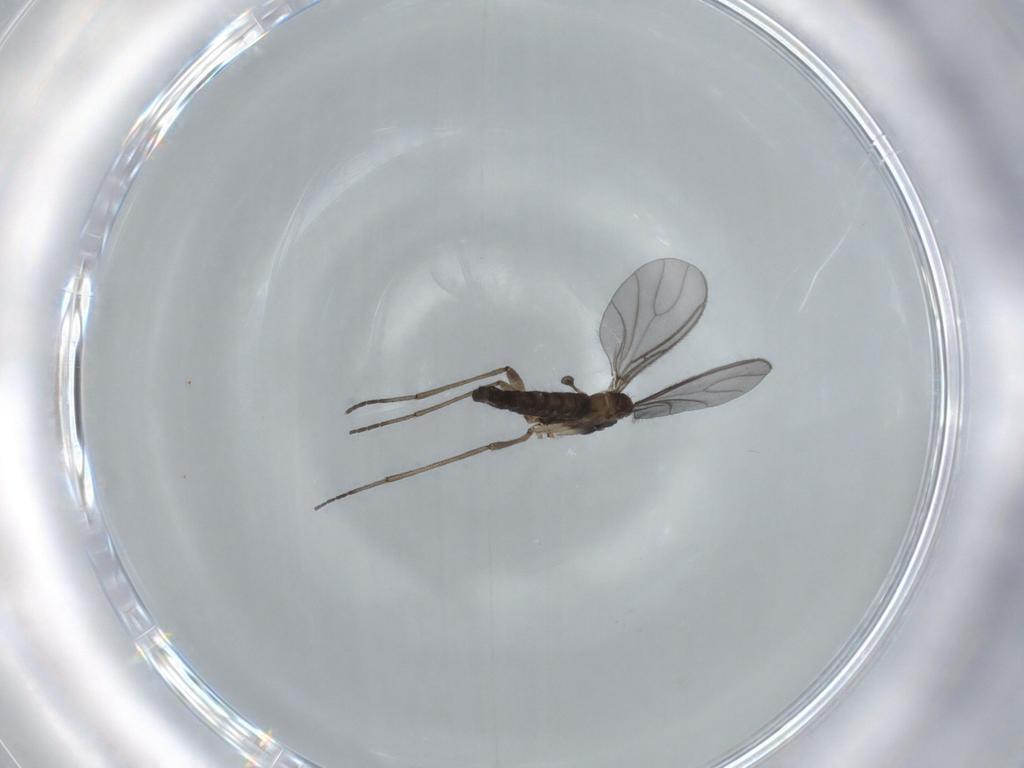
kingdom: Animalia
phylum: Arthropoda
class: Insecta
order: Diptera
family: Sciaridae
